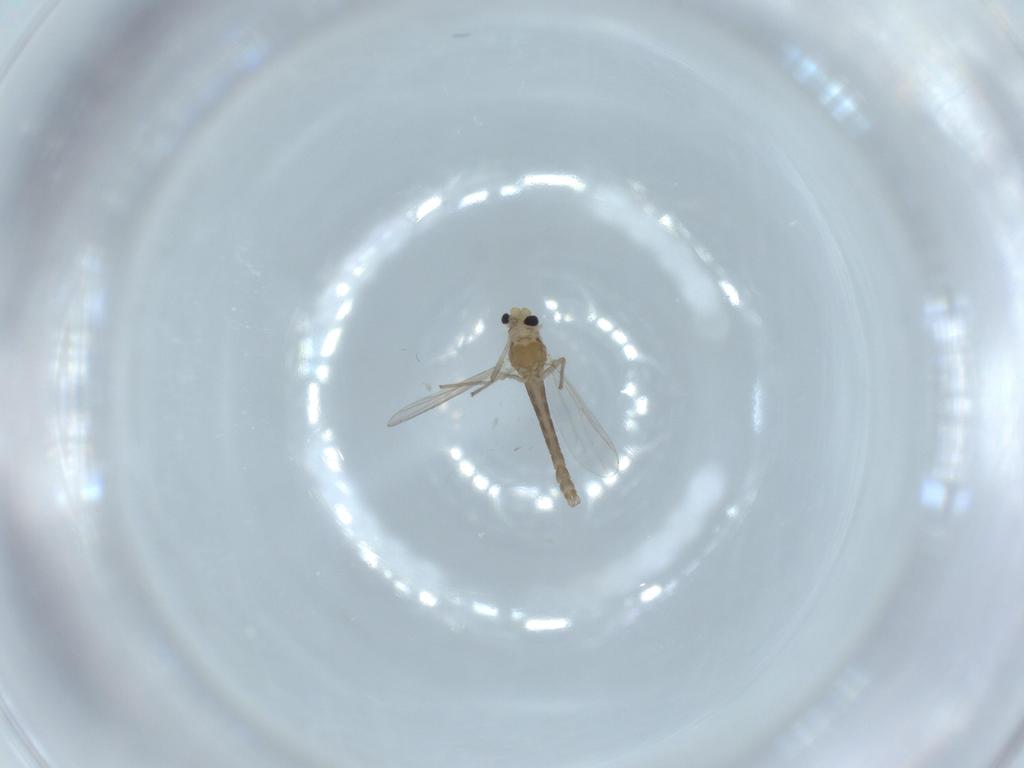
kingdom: Animalia
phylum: Arthropoda
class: Insecta
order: Diptera
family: Chironomidae
